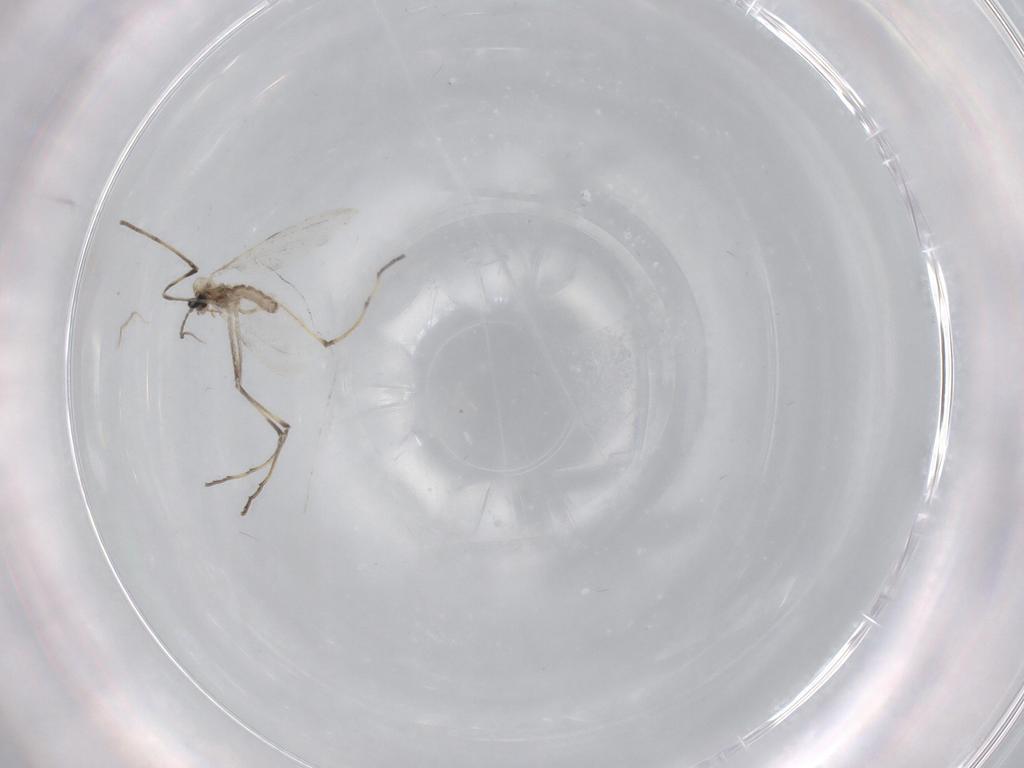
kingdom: Animalia
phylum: Arthropoda
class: Insecta
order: Diptera
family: Cecidomyiidae
